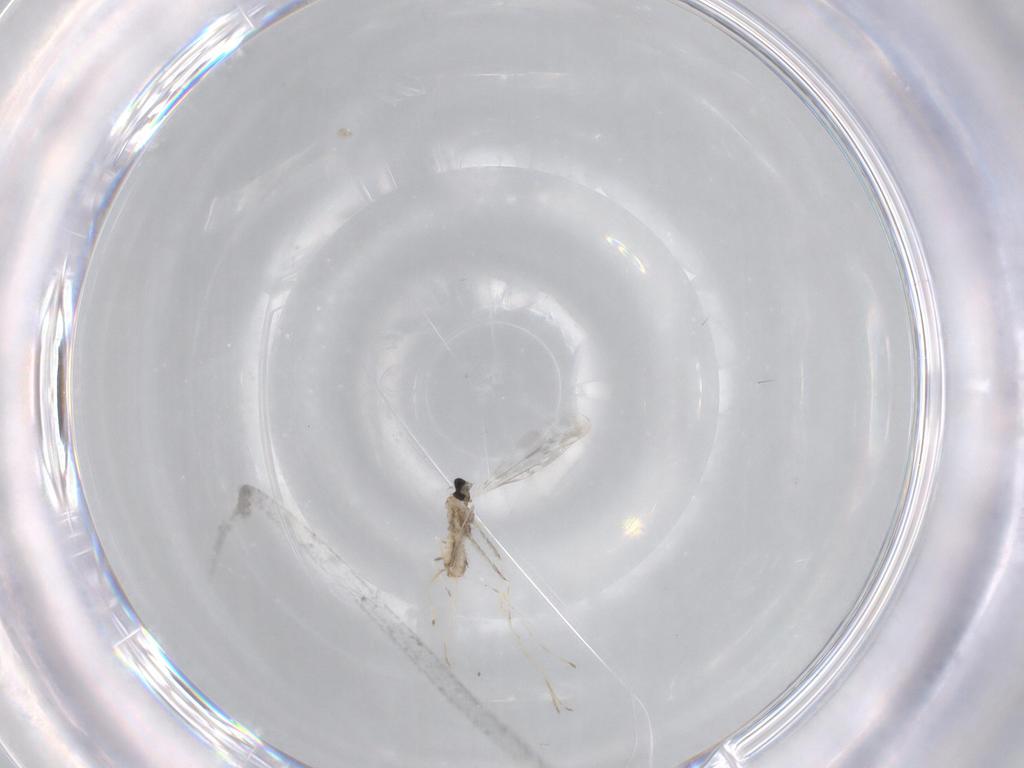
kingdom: Animalia
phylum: Arthropoda
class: Insecta
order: Diptera
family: Cecidomyiidae
